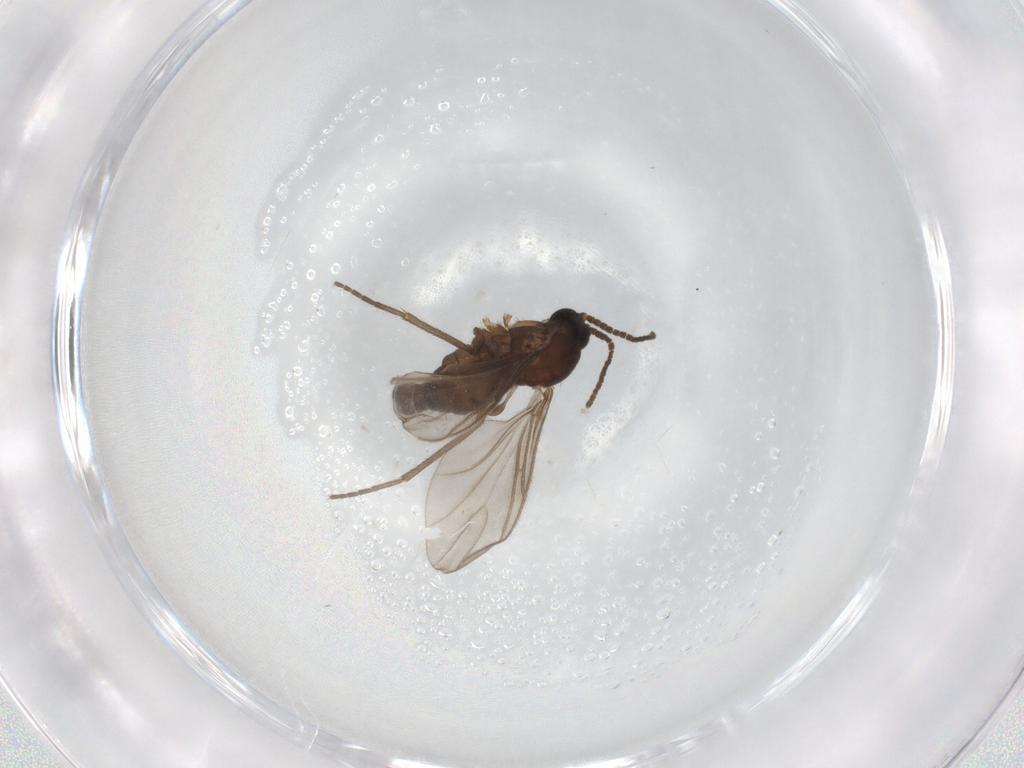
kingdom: Animalia
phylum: Arthropoda
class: Insecta
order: Diptera
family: Sciaridae
